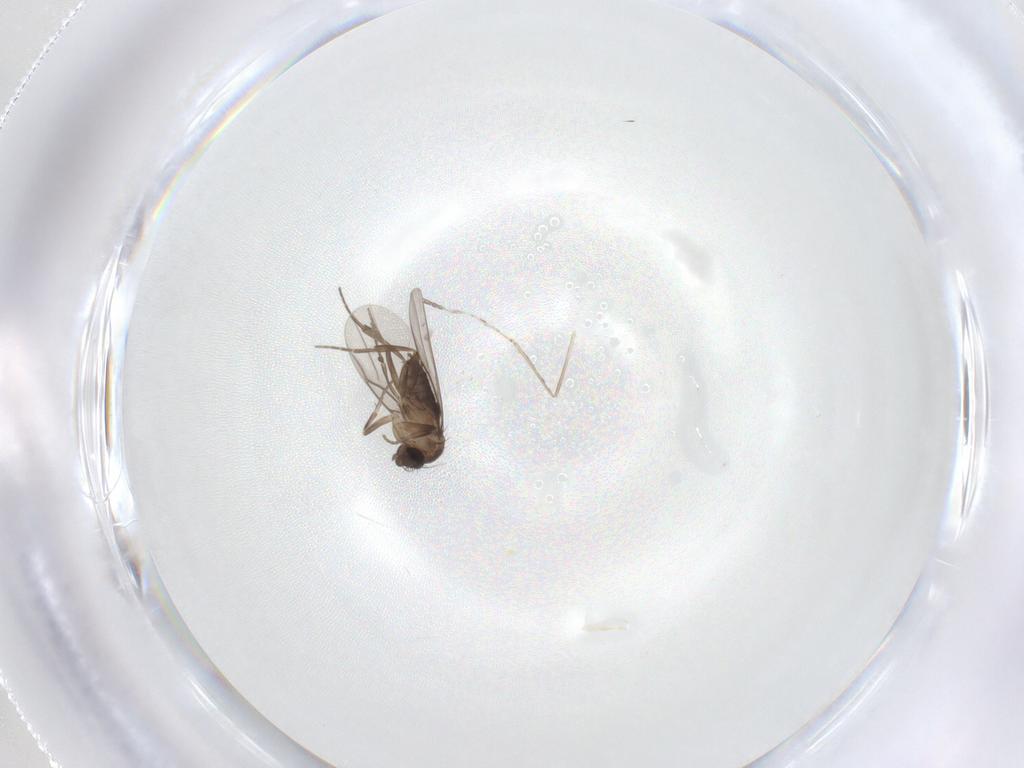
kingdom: Animalia
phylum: Arthropoda
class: Insecta
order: Diptera
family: Cecidomyiidae
